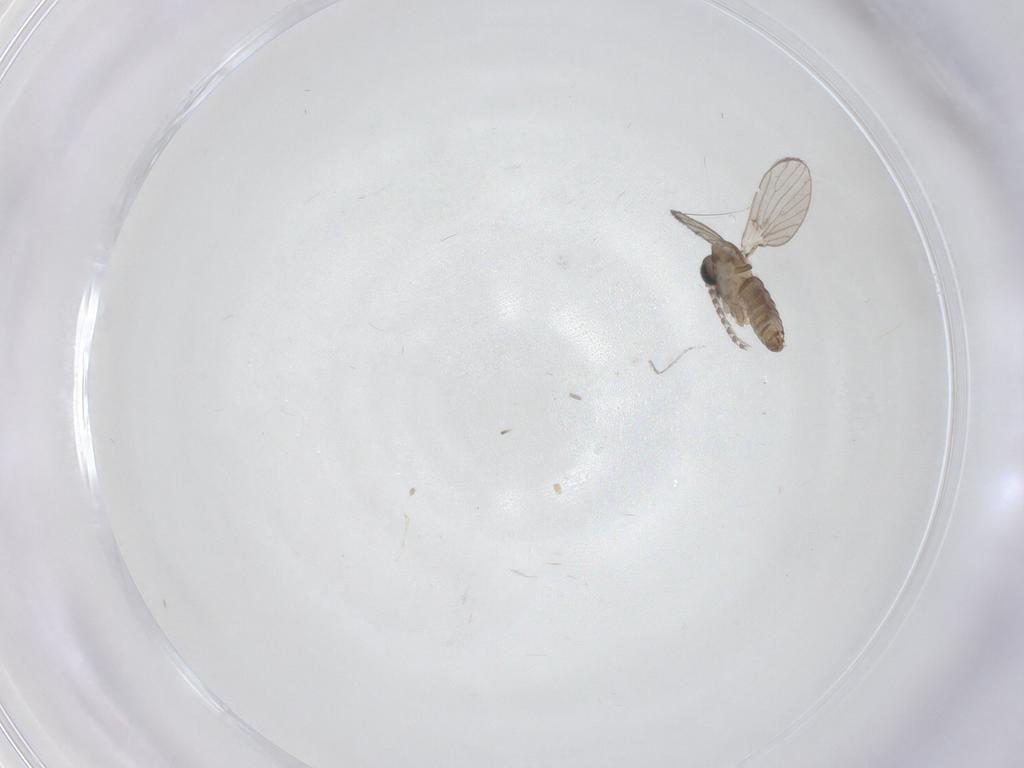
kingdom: Animalia
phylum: Arthropoda
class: Insecta
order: Diptera
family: Psychodidae
